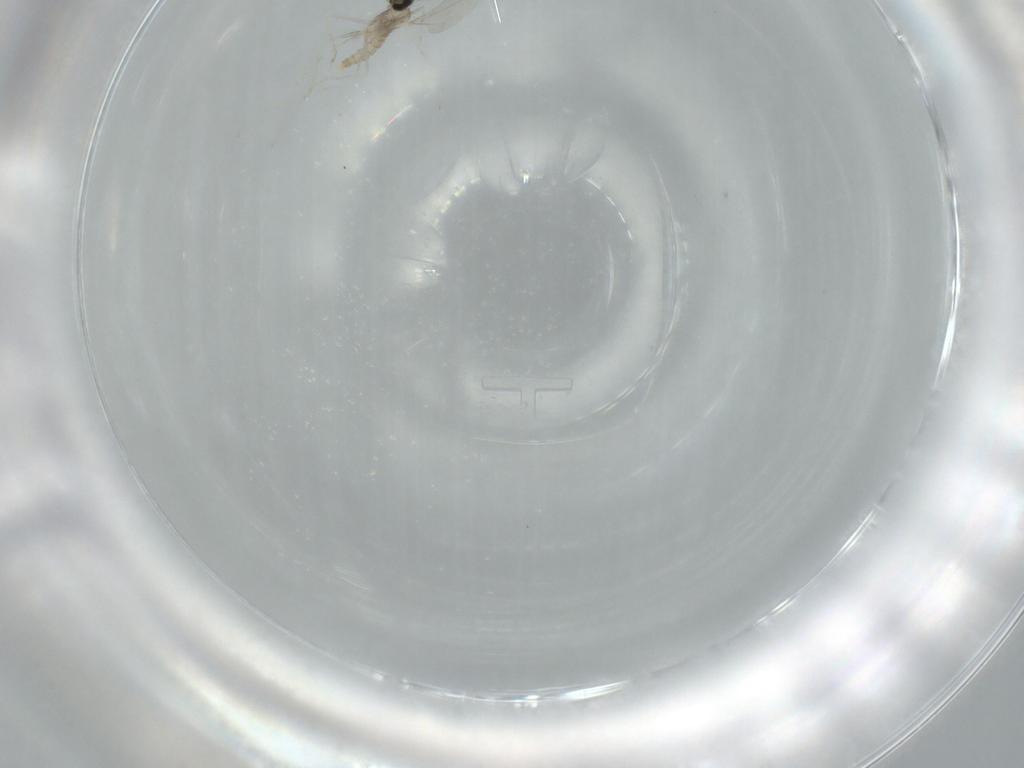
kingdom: Animalia
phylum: Arthropoda
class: Insecta
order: Diptera
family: Cecidomyiidae
